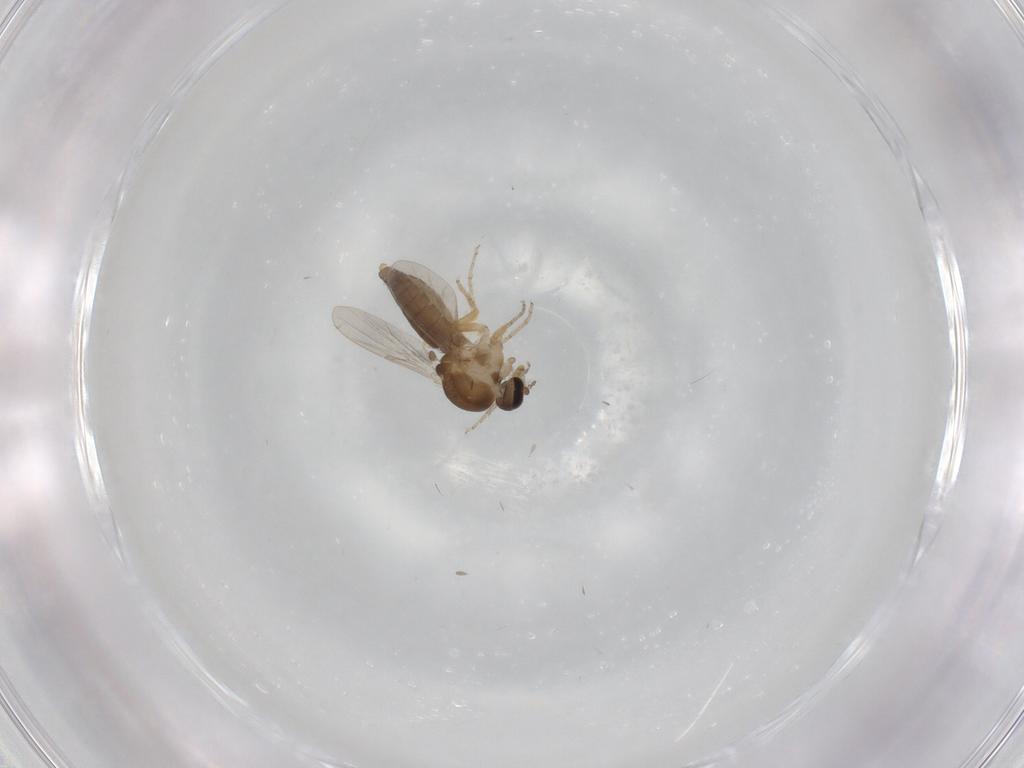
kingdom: Animalia
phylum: Arthropoda
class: Insecta
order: Diptera
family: Ceratopogonidae
